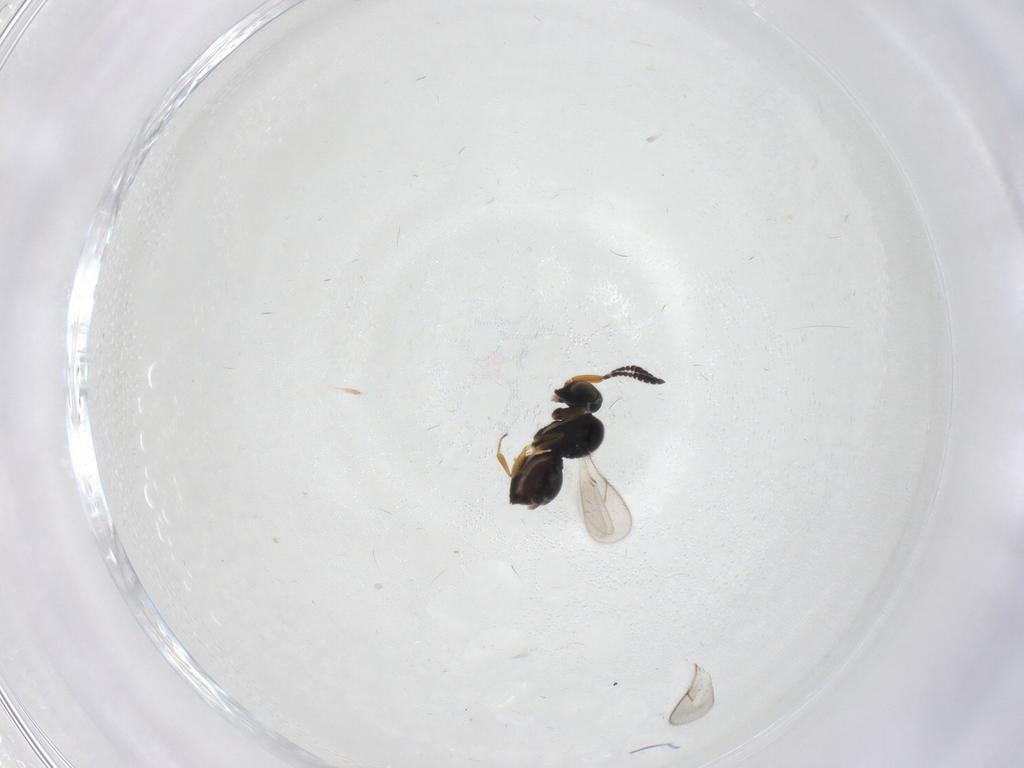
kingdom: Animalia
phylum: Arthropoda
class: Insecta
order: Hymenoptera
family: Scelionidae
